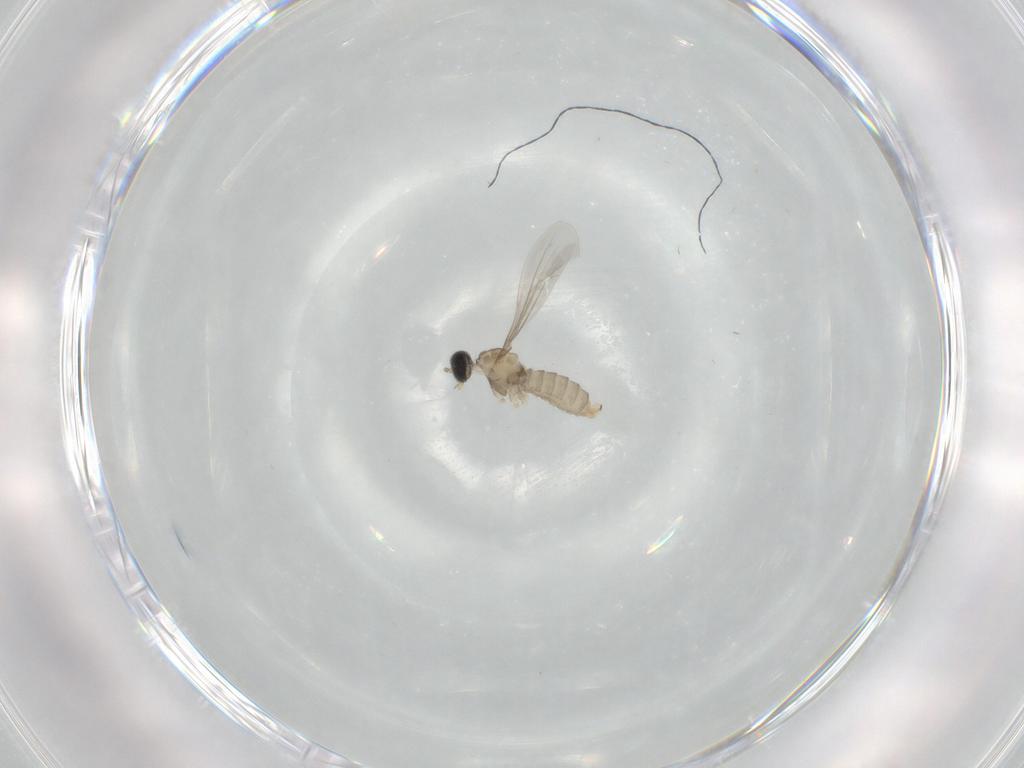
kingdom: Animalia
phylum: Arthropoda
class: Insecta
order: Diptera
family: Cecidomyiidae
